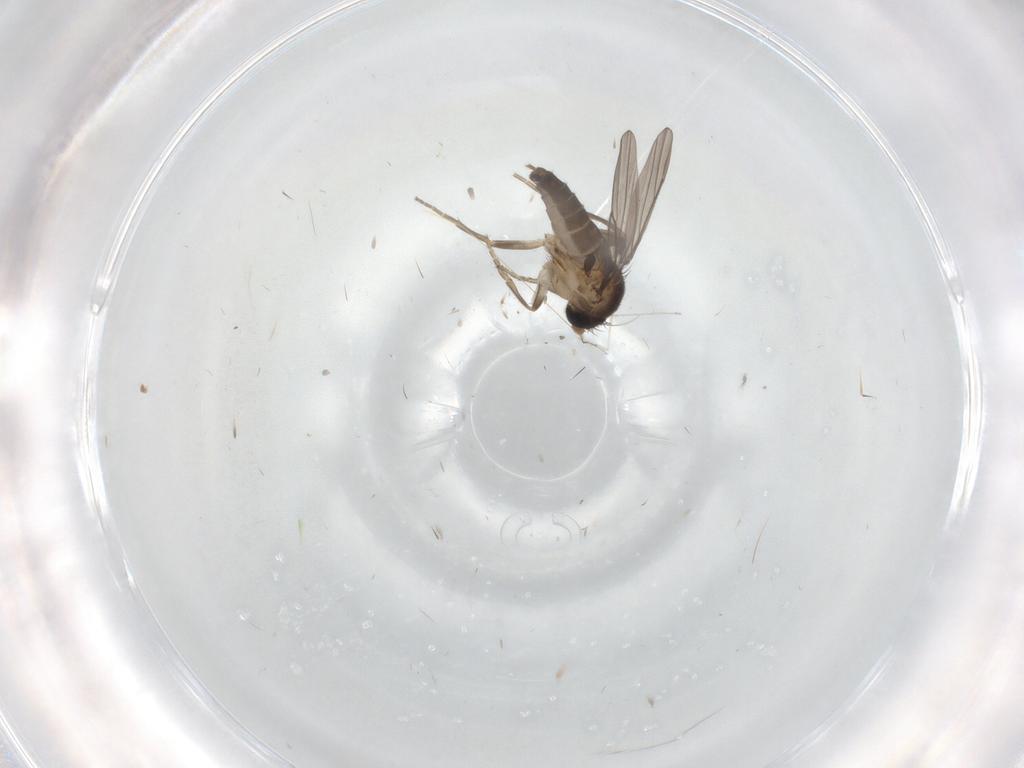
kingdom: Animalia
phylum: Arthropoda
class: Insecta
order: Diptera
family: Cecidomyiidae
